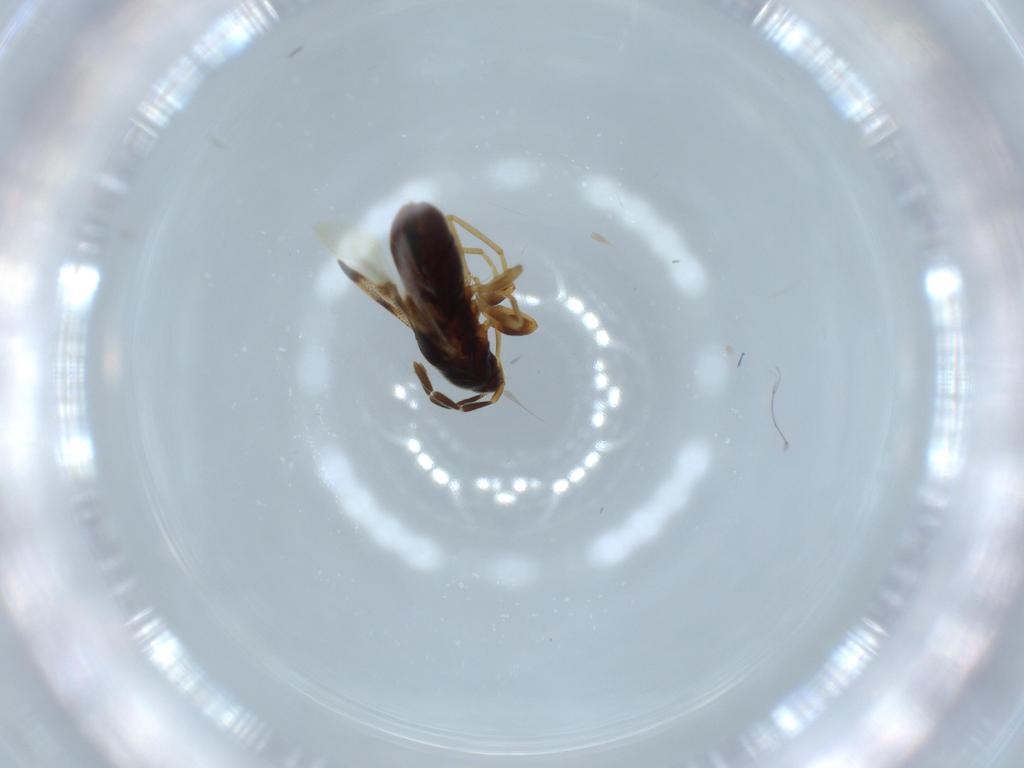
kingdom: Animalia
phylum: Arthropoda
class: Insecta
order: Hemiptera
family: Rhyparochromidae
